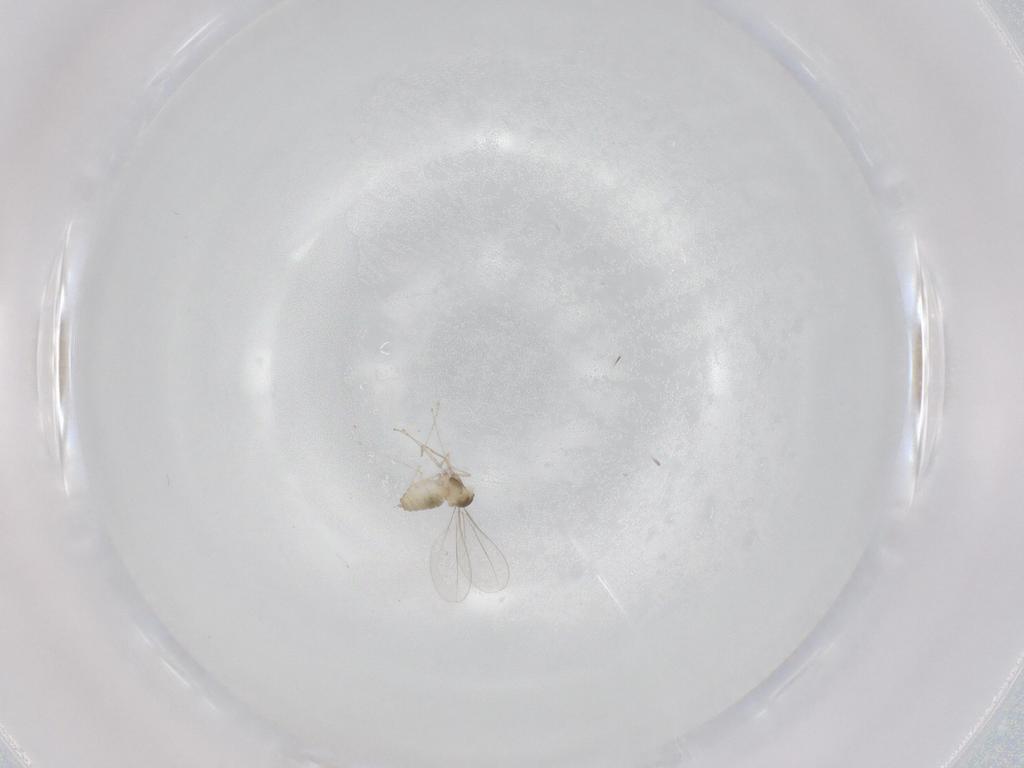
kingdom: Animalia
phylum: Arthropoda
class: Insecta
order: Diptera
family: Cecidomyiidae
